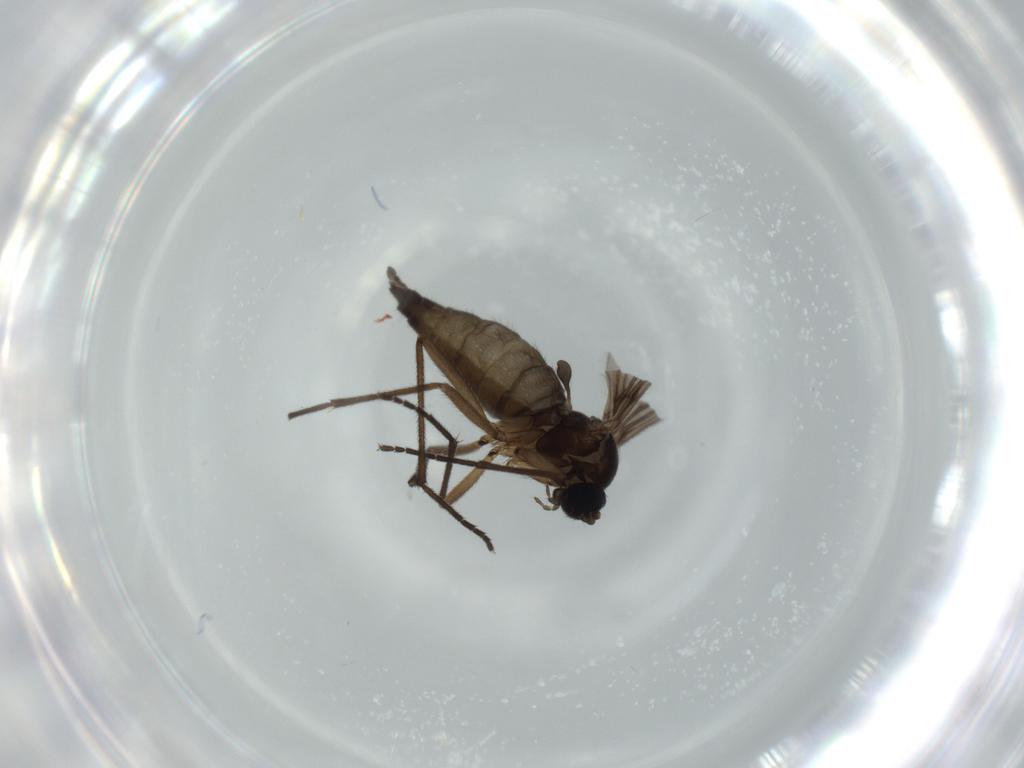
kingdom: Animalia
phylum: Arthropoda
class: Insecta
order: Diptera
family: Sciaridae
